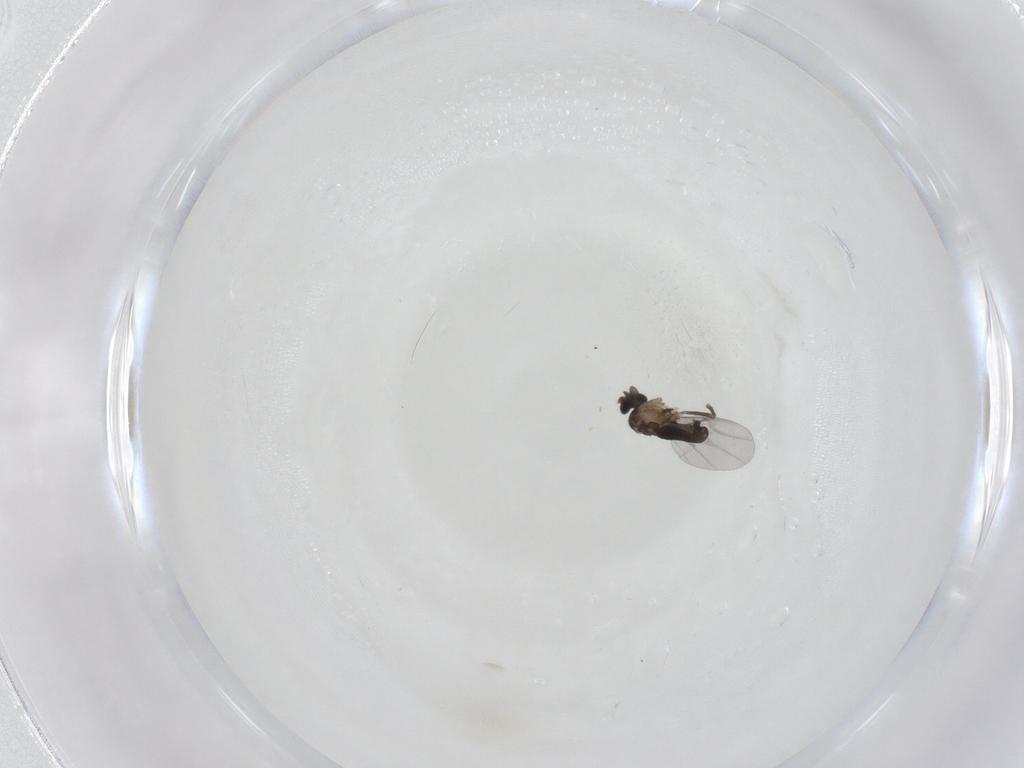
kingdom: Animalia
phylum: Arthropoda
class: Insecta
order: Diptera
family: Phoridae
